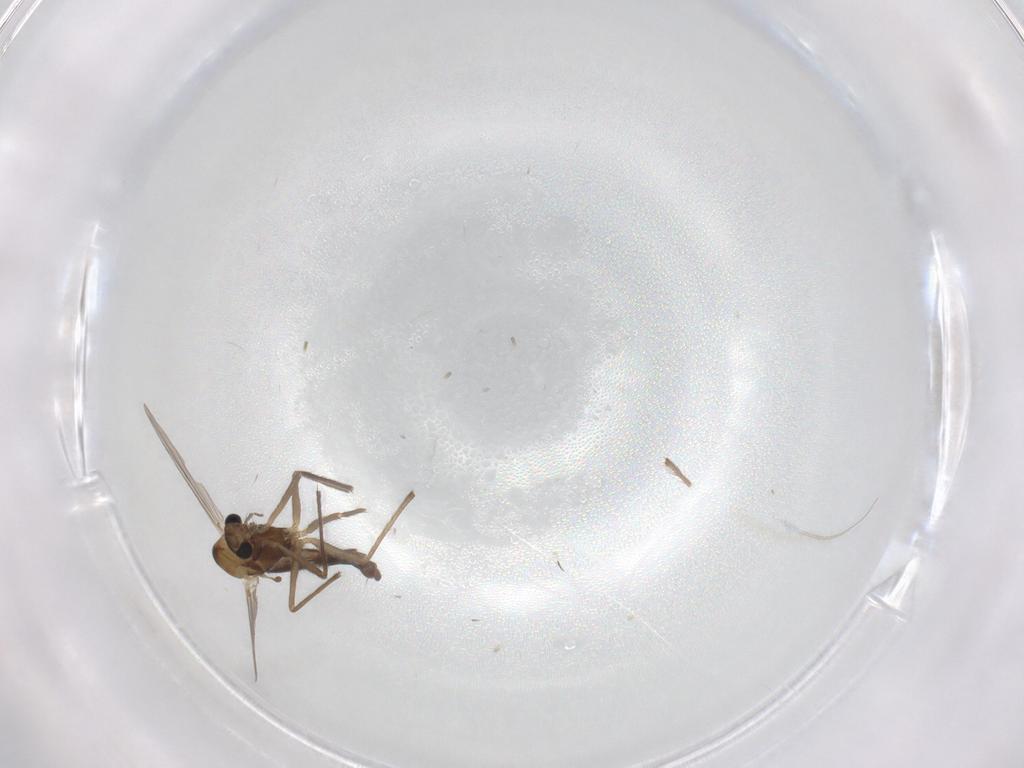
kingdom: Animalia
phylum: Arthropoda
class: Insecta
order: Diptera
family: Chironomidae
